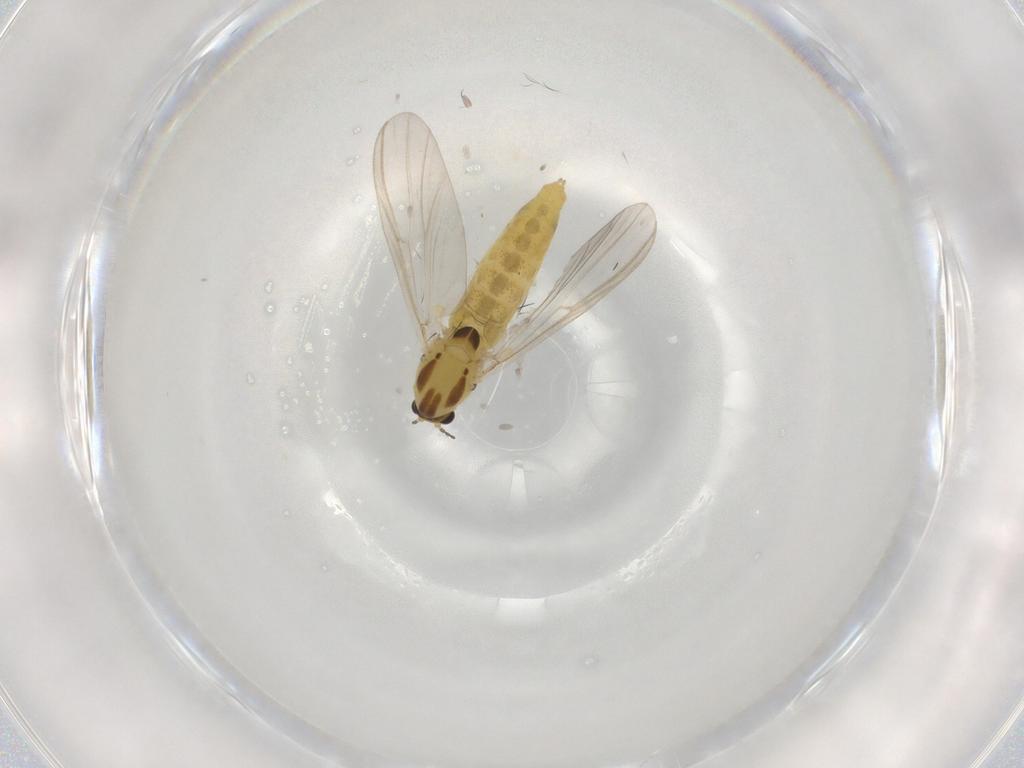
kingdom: Animalia
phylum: Arthropoda
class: Insecta
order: Diptera
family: Chironomidae
